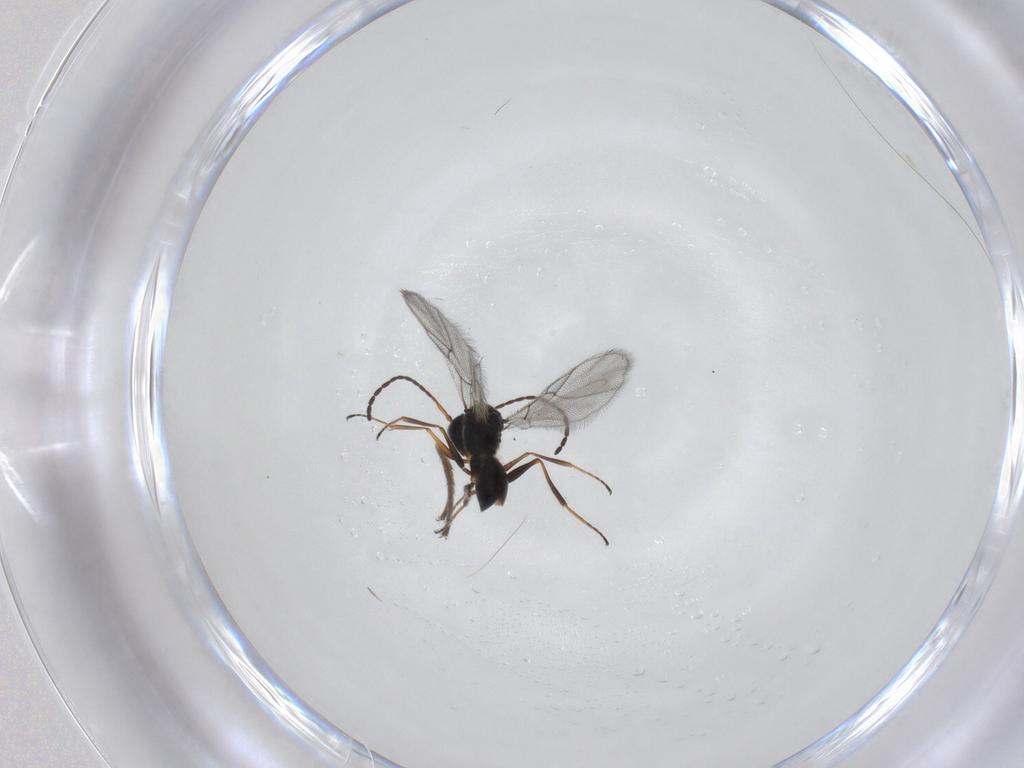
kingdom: Animalia
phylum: Arthropoda
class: Insecta
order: Hymenoptera
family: Figitidae
